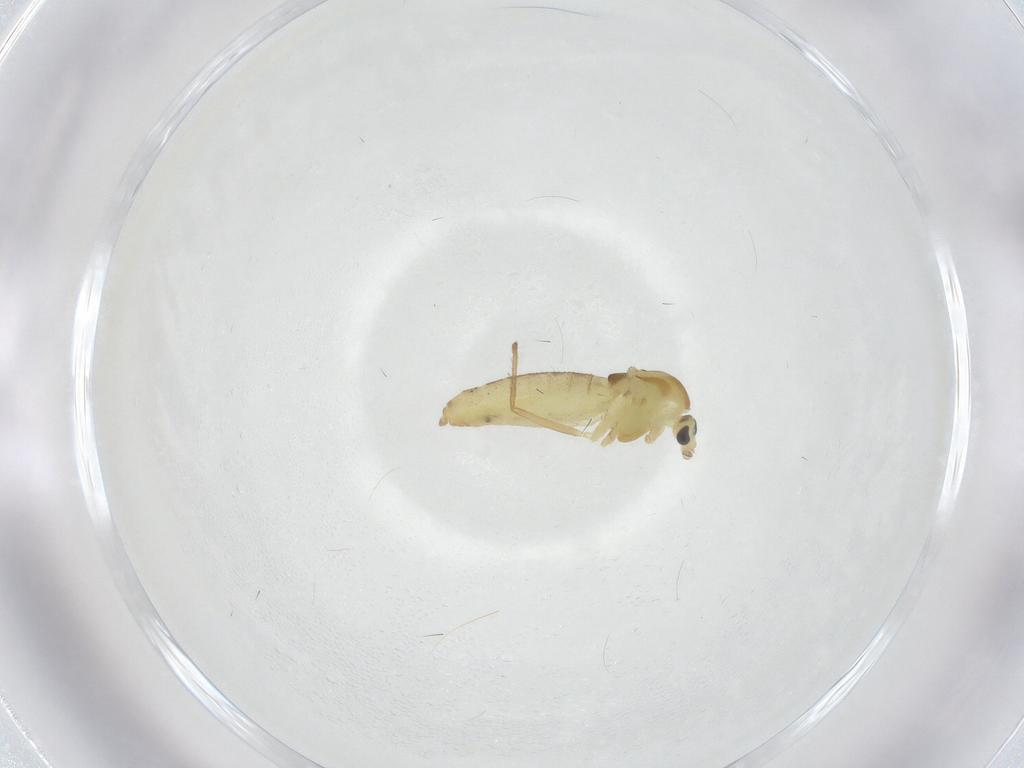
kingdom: Animalia
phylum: Arthropoda
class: Insecta
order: Diptera
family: Chironomidae
